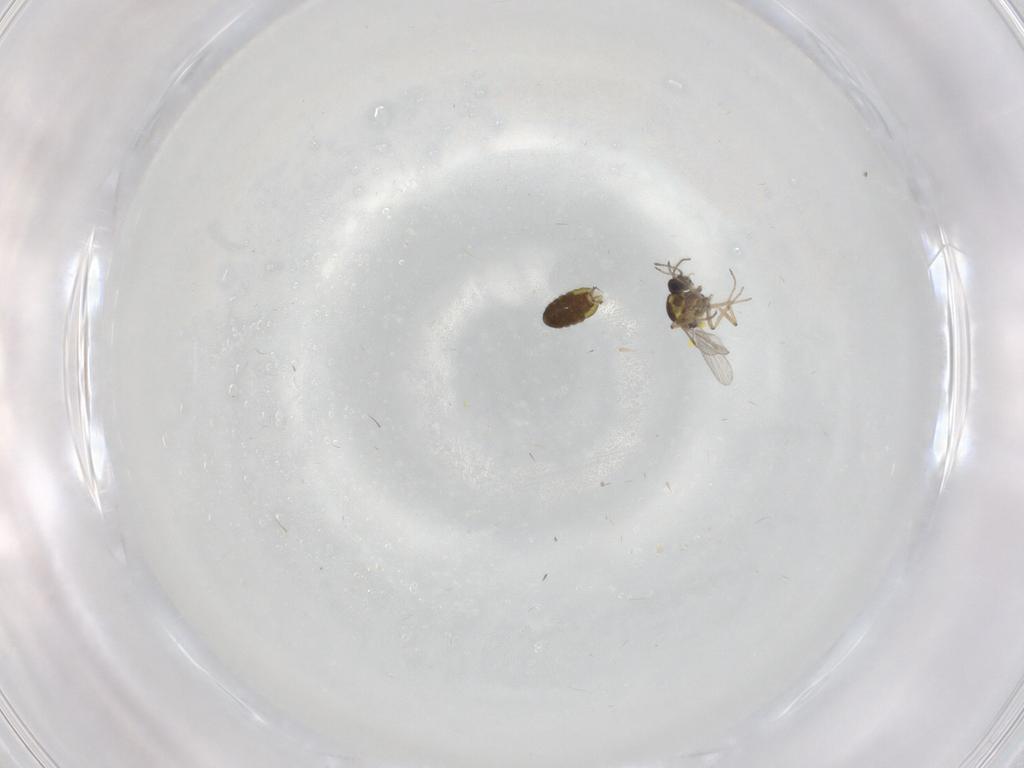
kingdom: Animalia
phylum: Arthropoda
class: Insecta
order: Diptera
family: Ceratopogonidae
